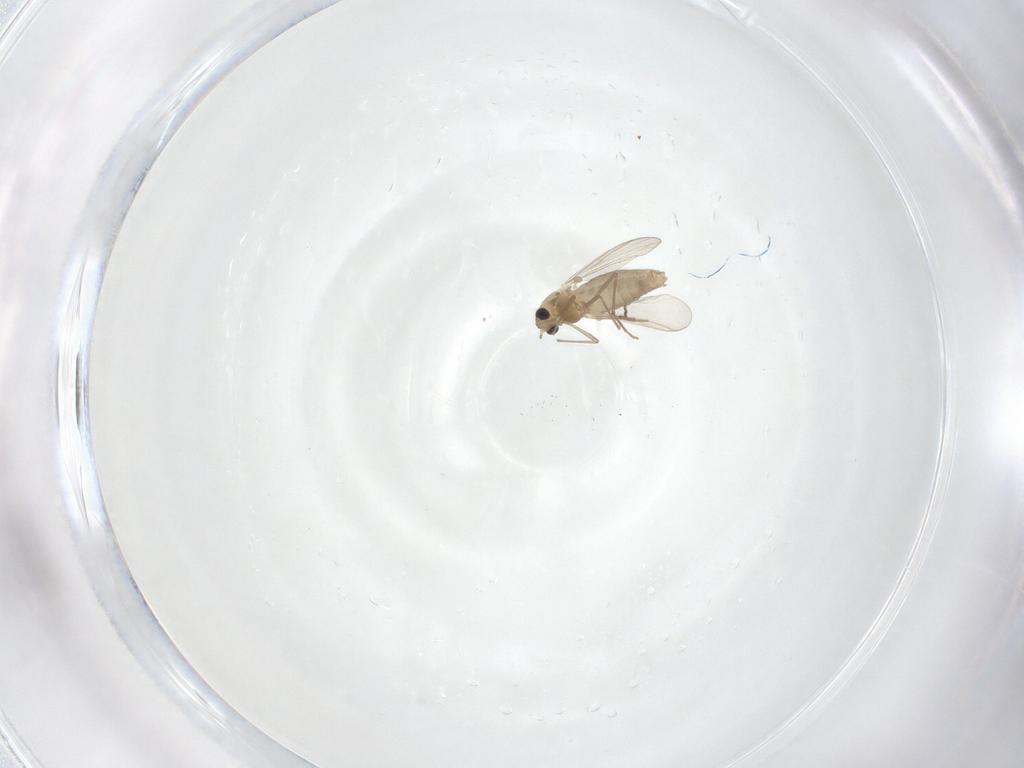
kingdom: Animalia
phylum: Arthropoda
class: Insecta
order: Diptera
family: Chironomidae
